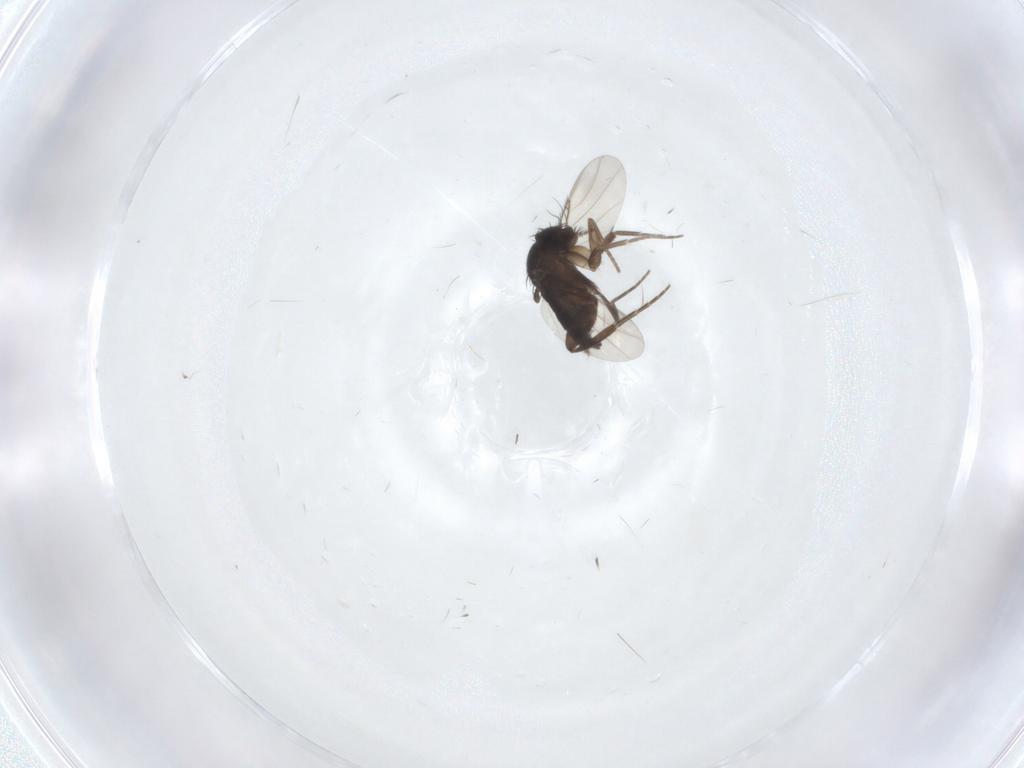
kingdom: Animalia
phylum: Arthropoda
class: Insecta
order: Diptera
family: Phoridae
